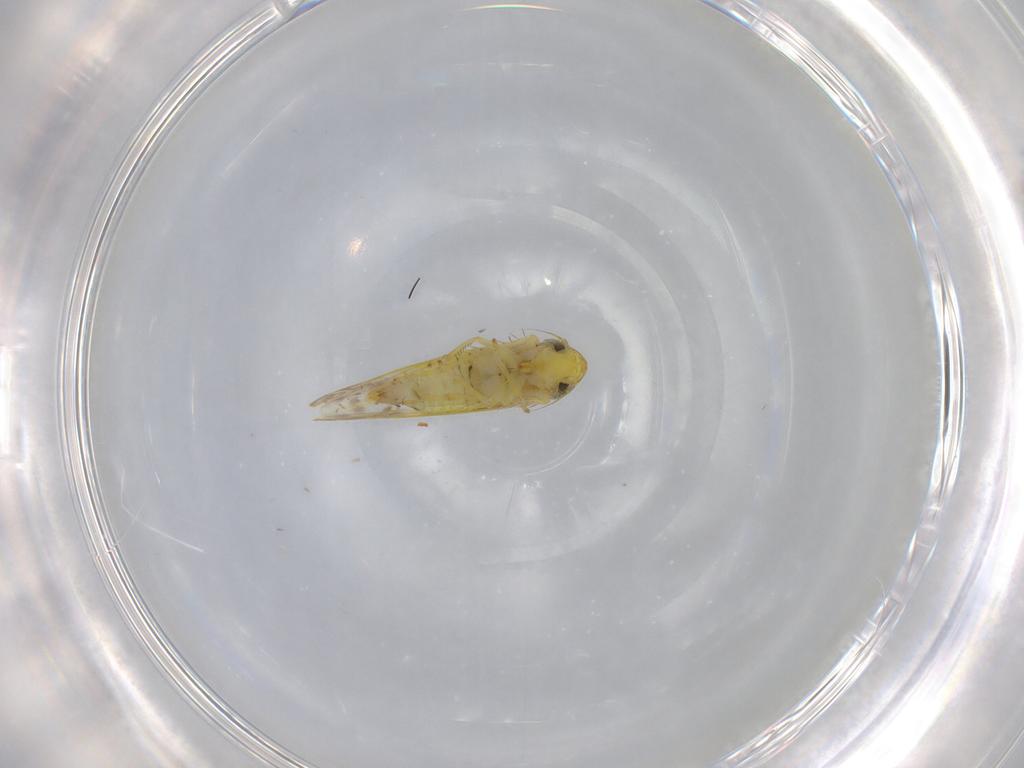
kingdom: Animalia
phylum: Arthropoda
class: Insecta
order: Hemiptera
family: Cicadellidae
